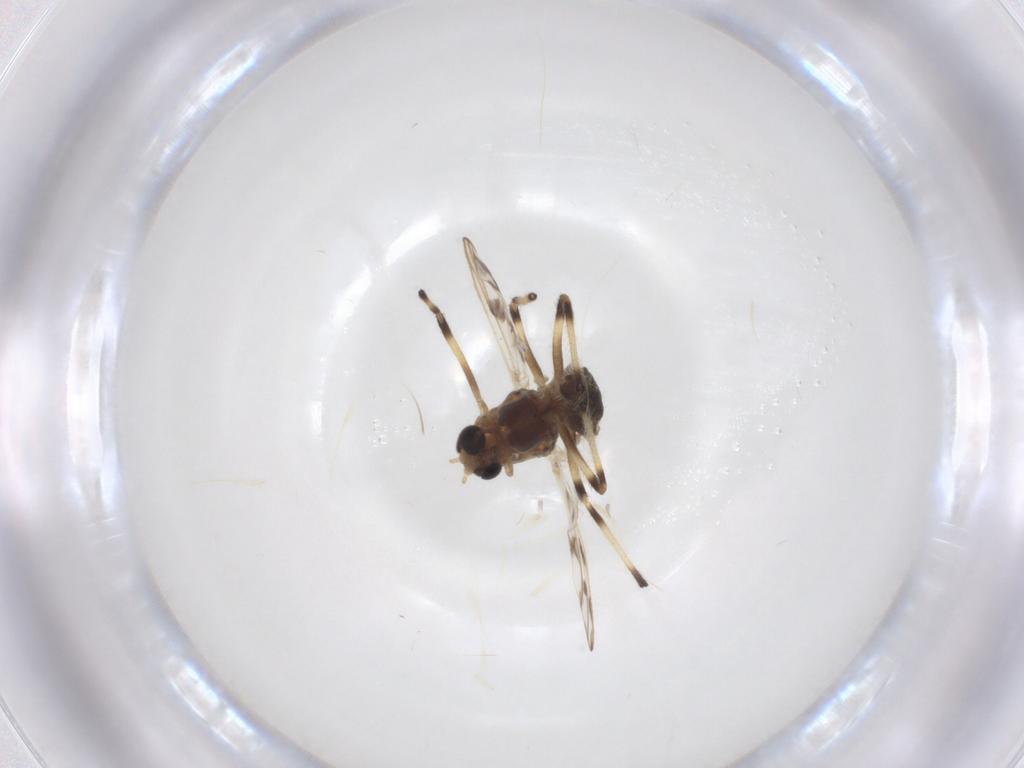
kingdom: Animalia
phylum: Arthropoda
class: Insecta
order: Diptera
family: Chironomidae
